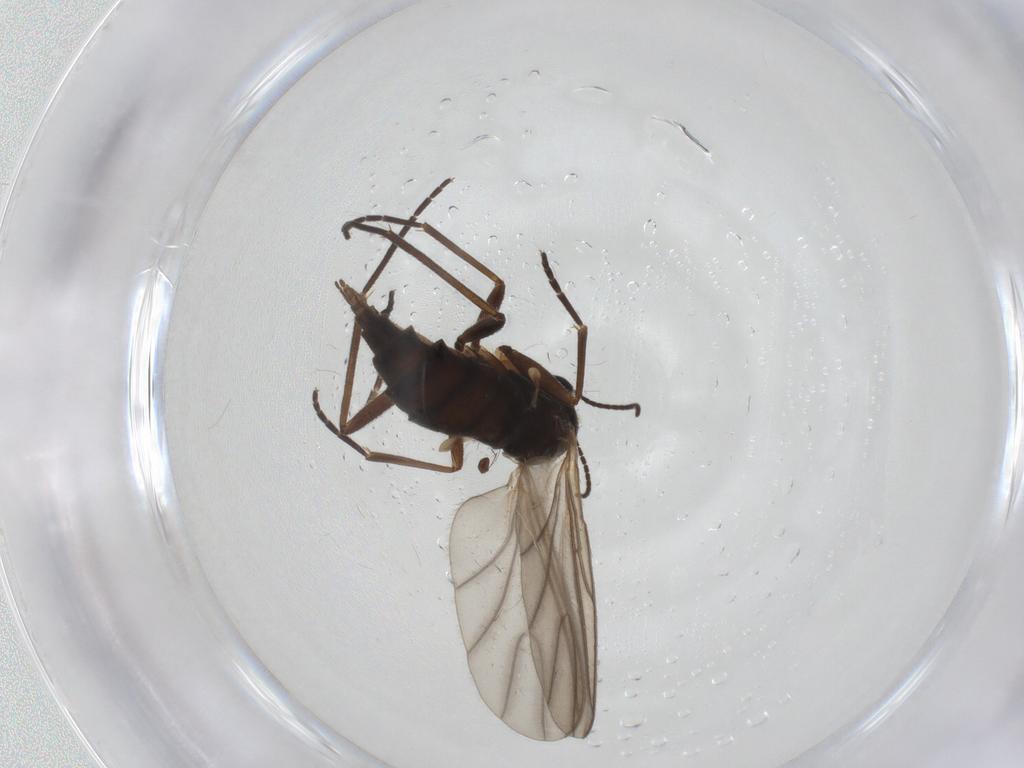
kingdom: Animalia
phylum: Arthropoda
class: Insecta
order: Diptera
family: Sciaridae
